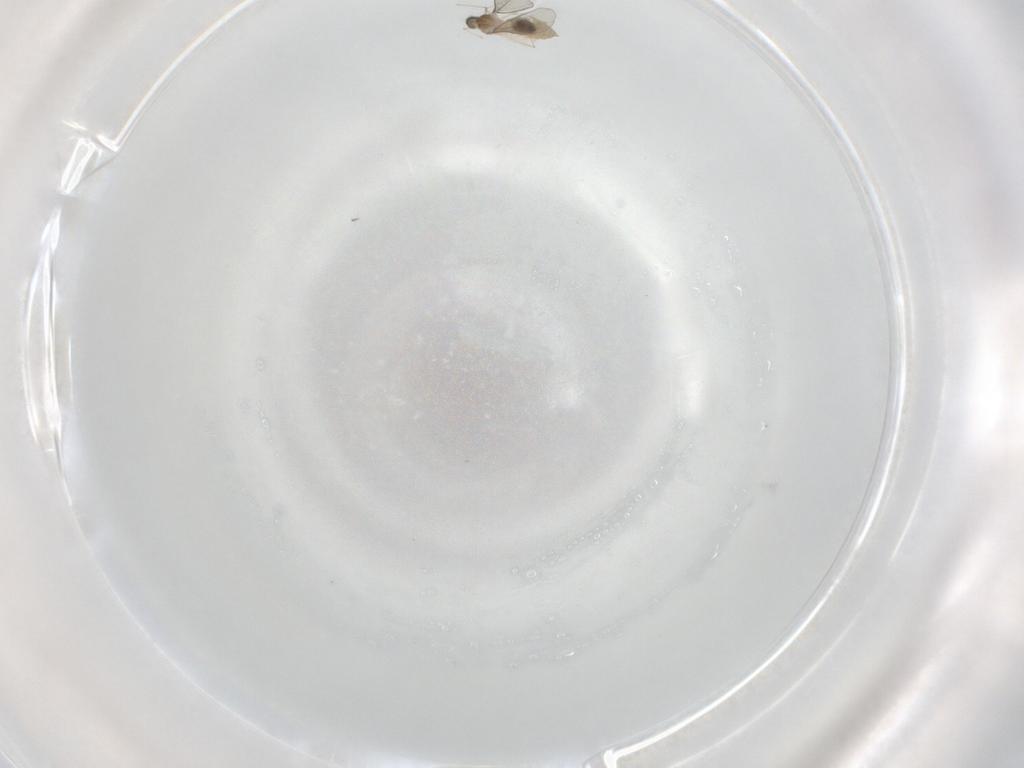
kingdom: Animalia
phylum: Arthropoda
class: Insecta
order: Diptera
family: Cecidomyiidae
